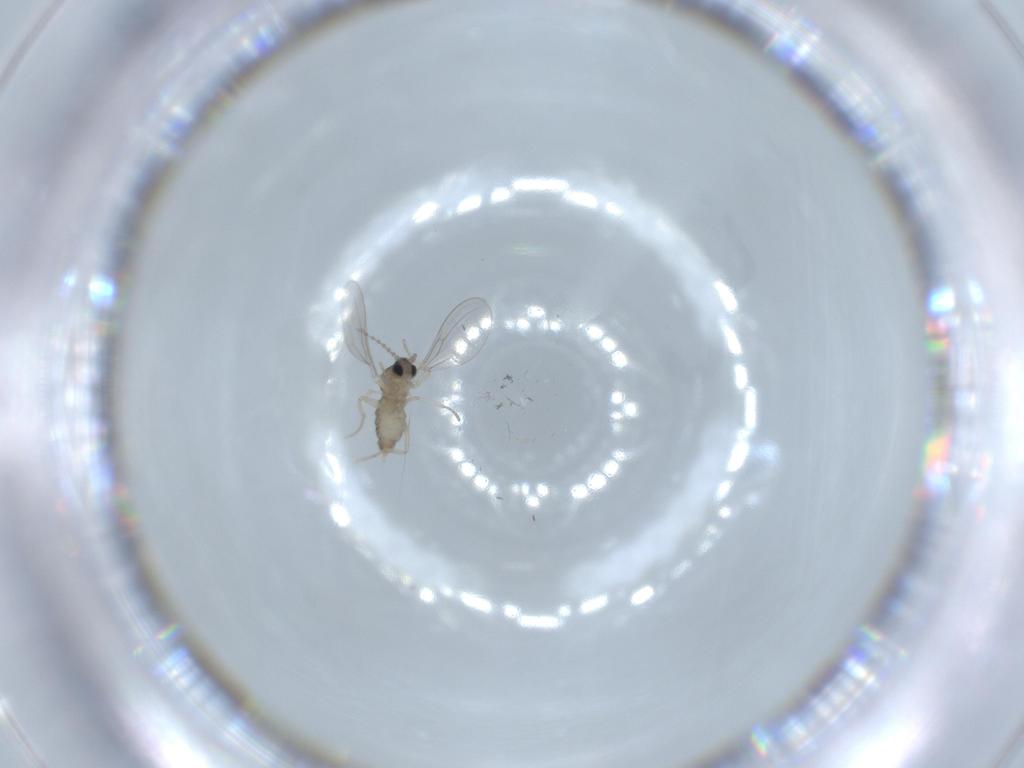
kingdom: Animalia
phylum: Arthropoda
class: Insecta
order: Diptera
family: Cecidomyiidae
